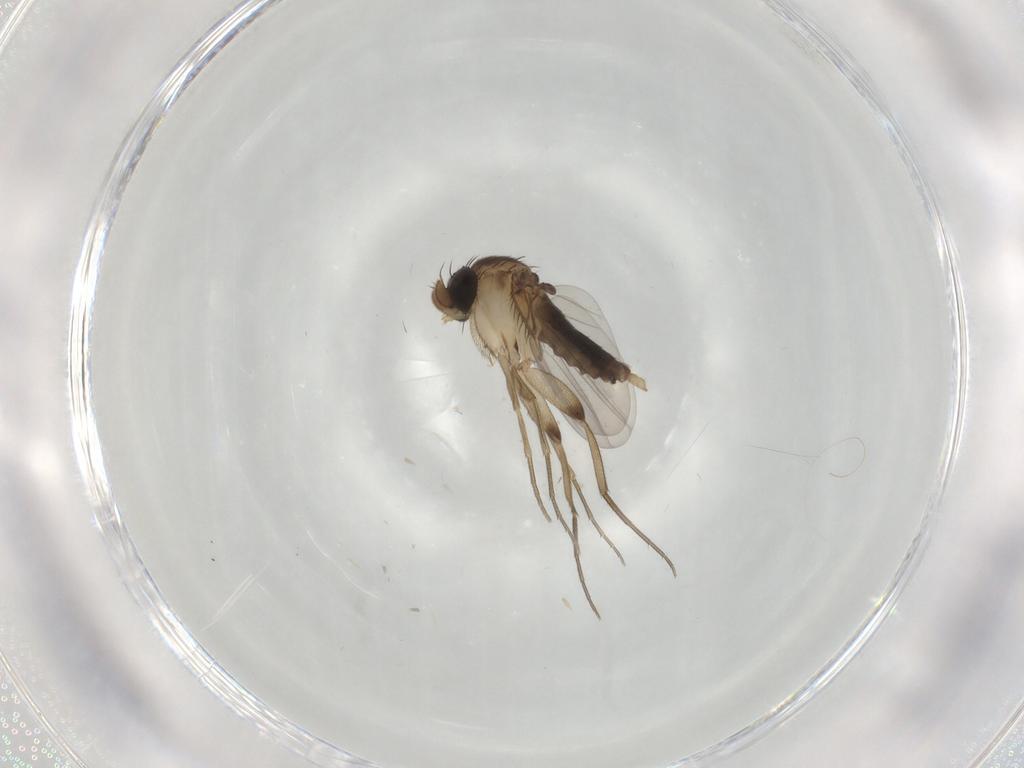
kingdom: Animalia
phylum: Arthropoda
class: Insecta
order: Diptera
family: Phoridae
